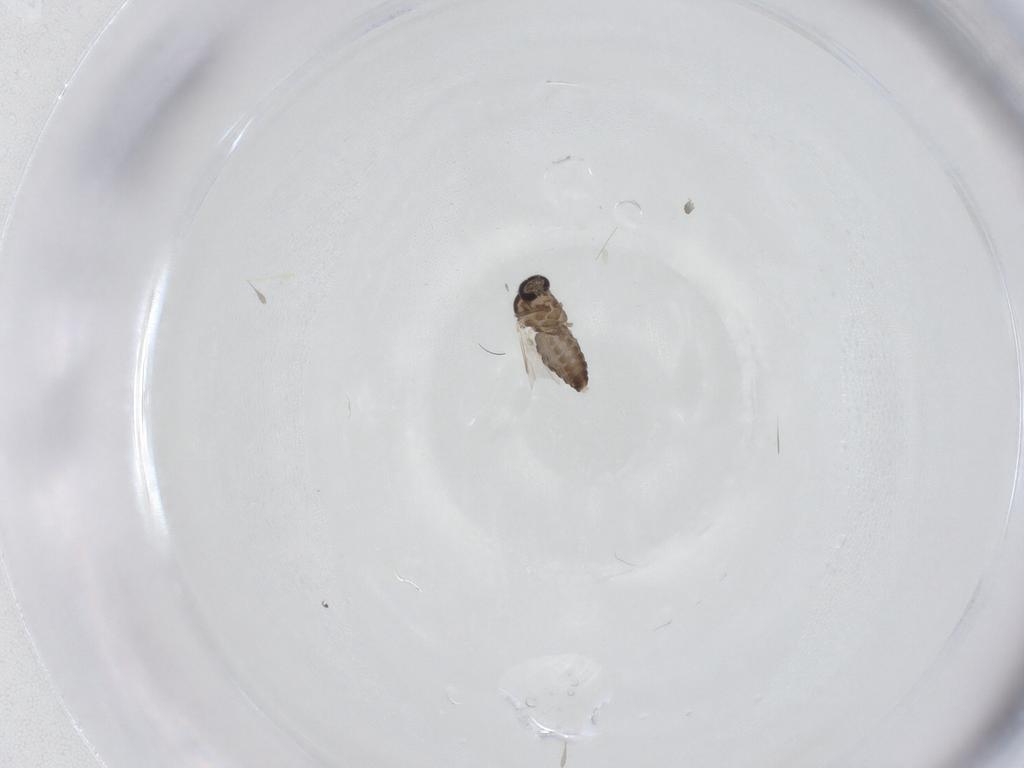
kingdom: Animalia
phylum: Arthropoda
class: Insecta
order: Diptera
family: Ceratopogonidae
